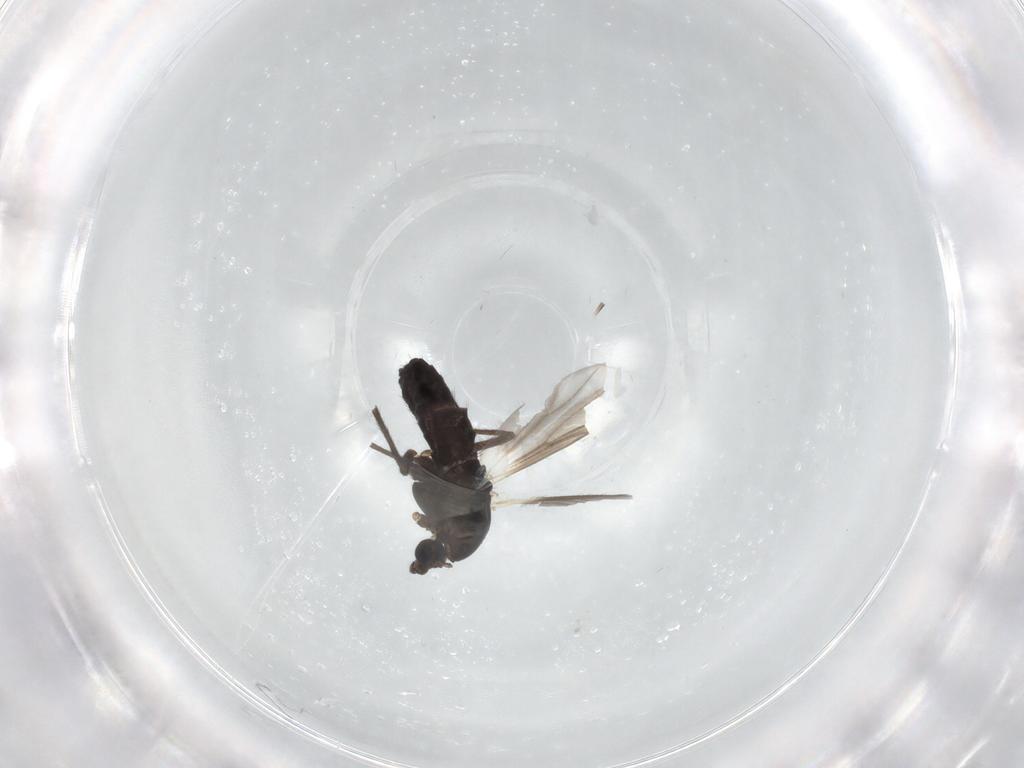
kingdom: Animalia
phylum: Arthropoda
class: Insecta
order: Diptera
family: Chironomidae
